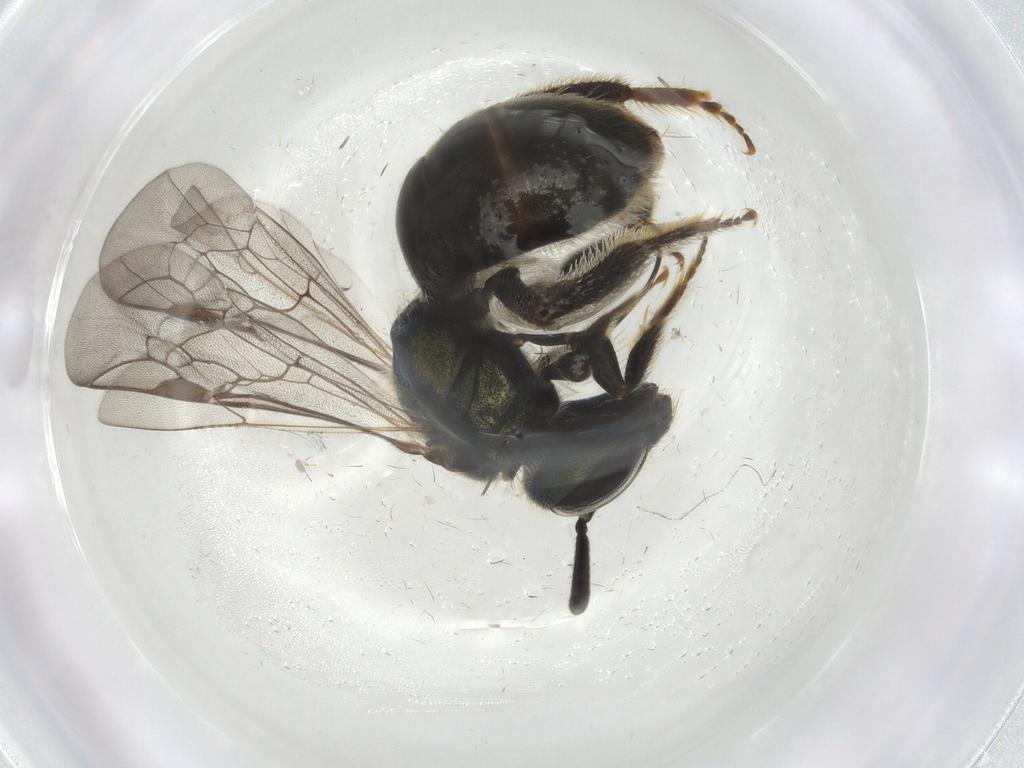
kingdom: Animalia
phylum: Arthropoda
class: Insecta
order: Hymenoptera
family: Halictidae
